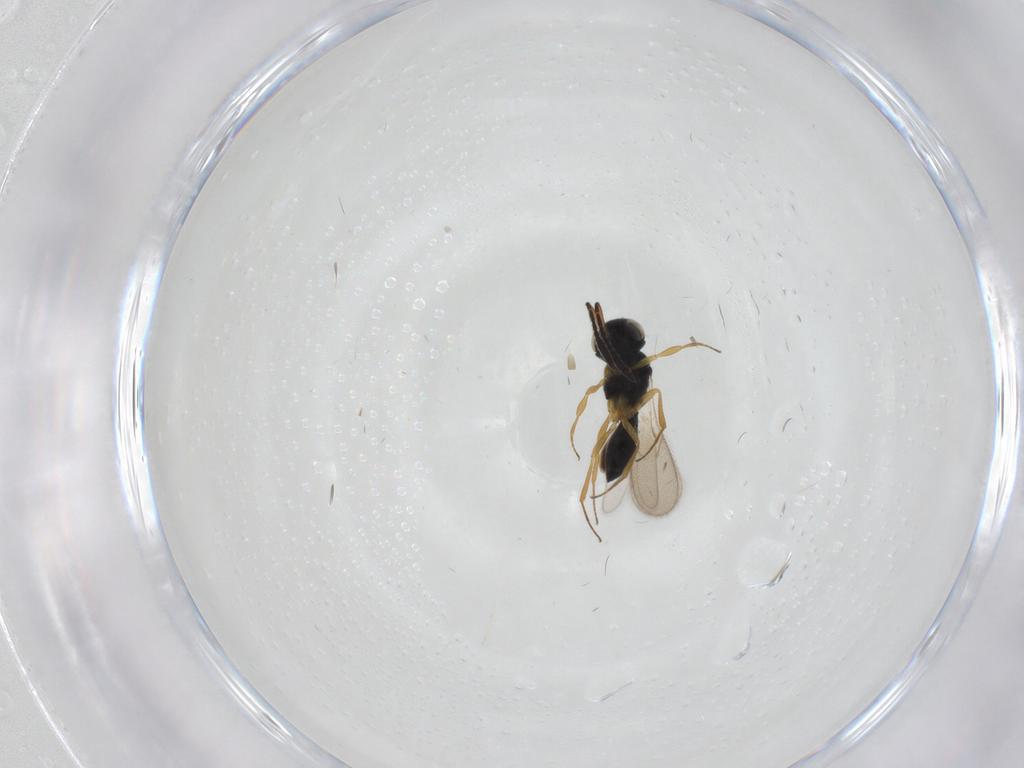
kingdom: Animalia
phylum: Arthropoda
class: Insecta
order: Hymenoptera
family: Scelionidae
